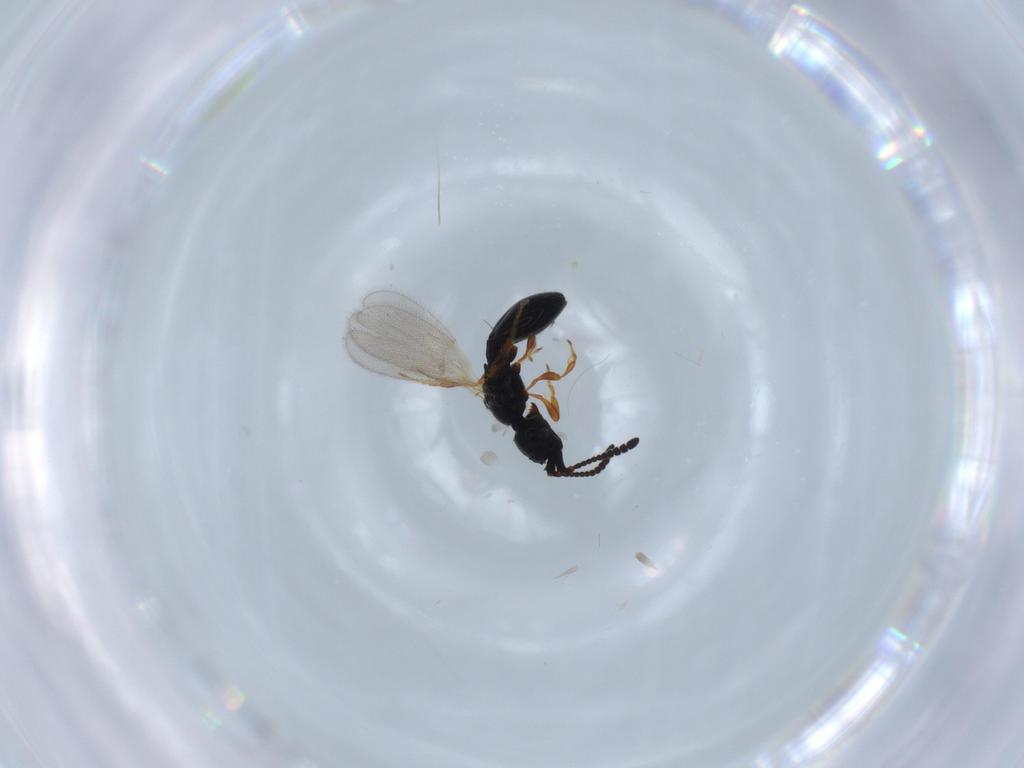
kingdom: Animalia
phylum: Arthropoda
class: Insecta
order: Hymenoptera
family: Diapriidae
